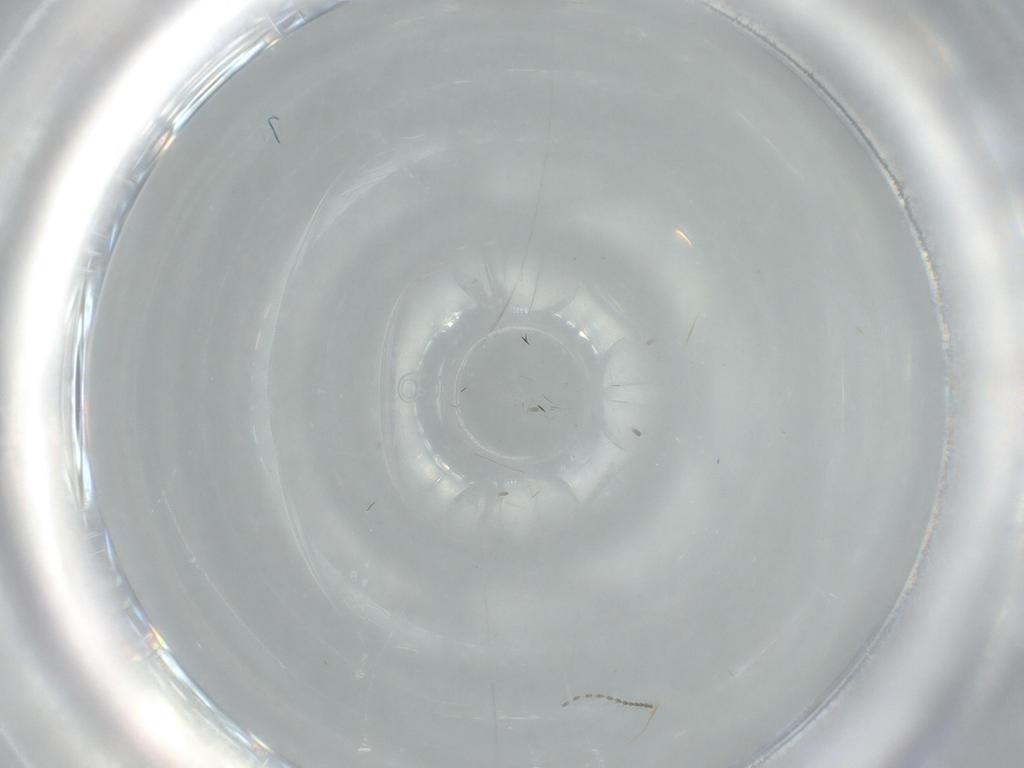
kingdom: Animalia
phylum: Arthropoda
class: Insecta
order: Diptera
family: Cecidomyiidae
